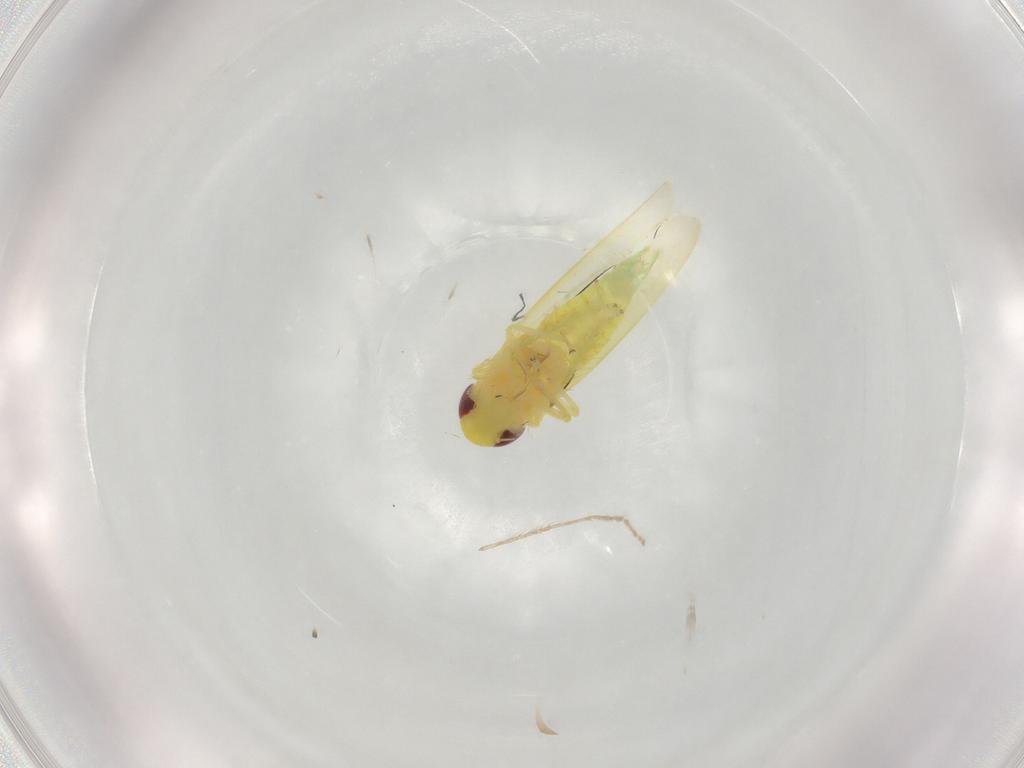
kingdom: Animalia
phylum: Arthropoda
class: Insecta
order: Hemiptera
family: Cicadellidae
